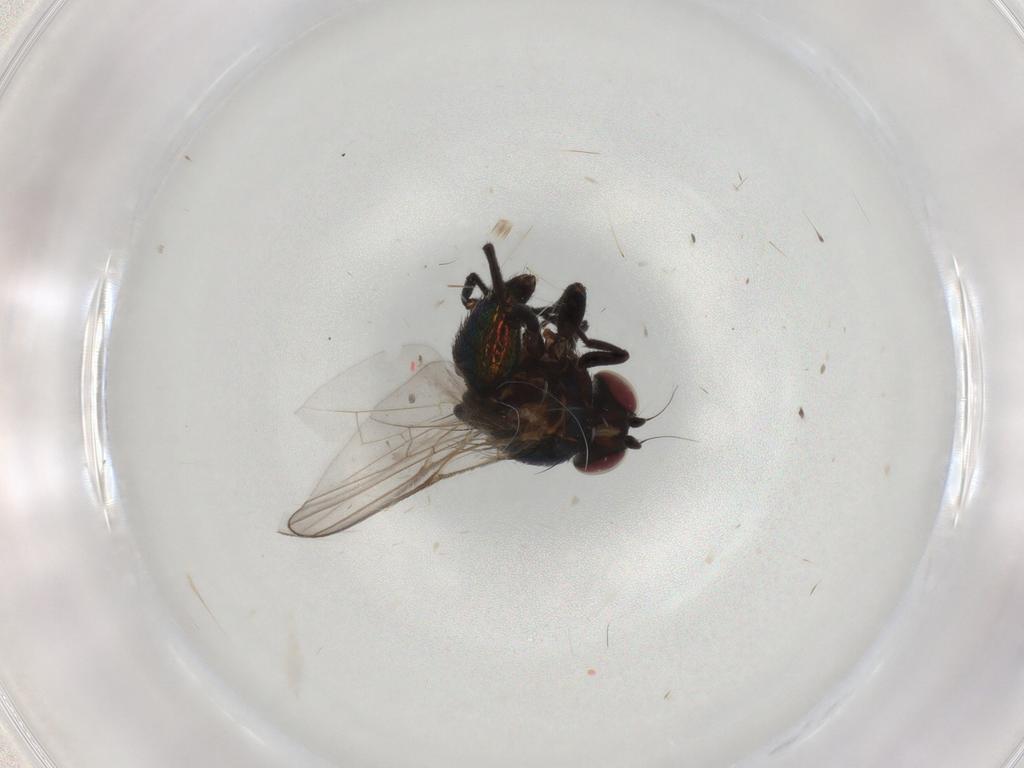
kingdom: Animalia
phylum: Arthropoda
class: Insecta
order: Diptera
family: Agromyzidae
